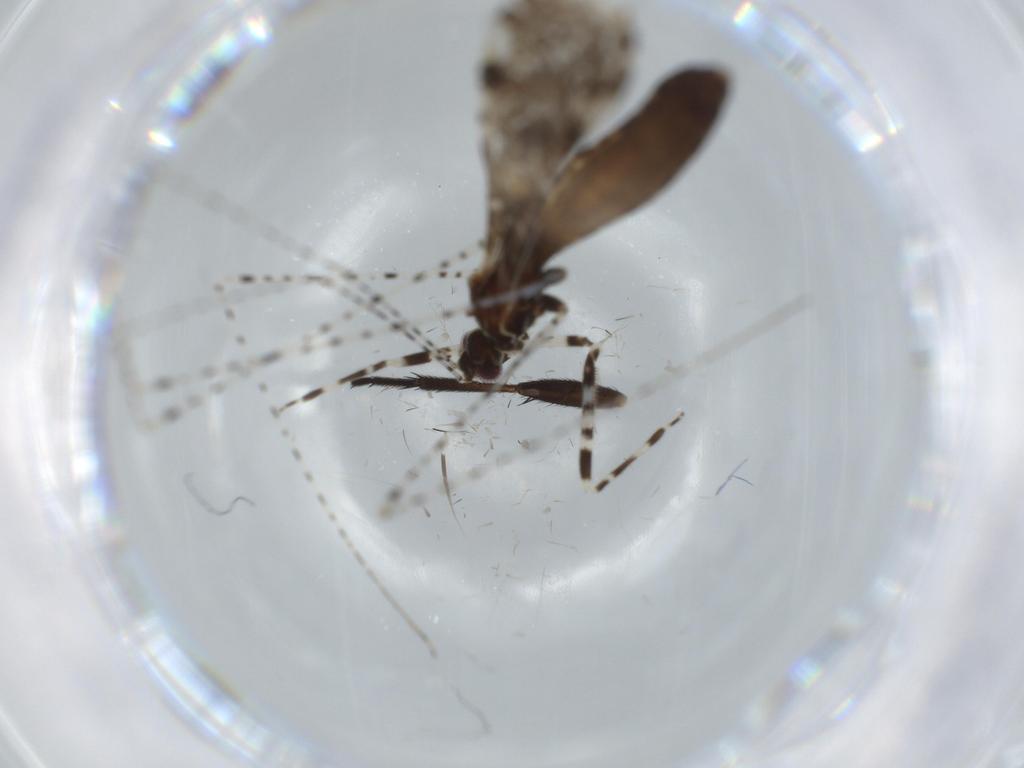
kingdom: Animalia
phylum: Arthropoda
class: Insecta
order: Hemiptera
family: Reduviidae
